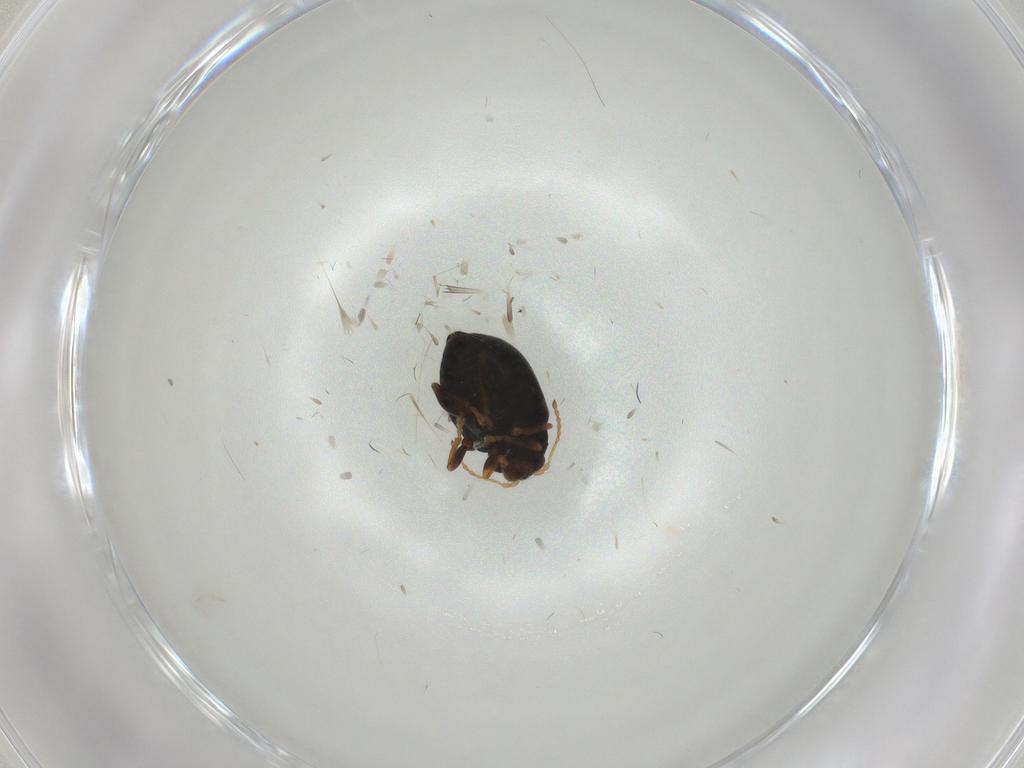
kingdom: Animalia
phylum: Arthropoda
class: Insecta
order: Coleoptera
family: Chrysomelidae
